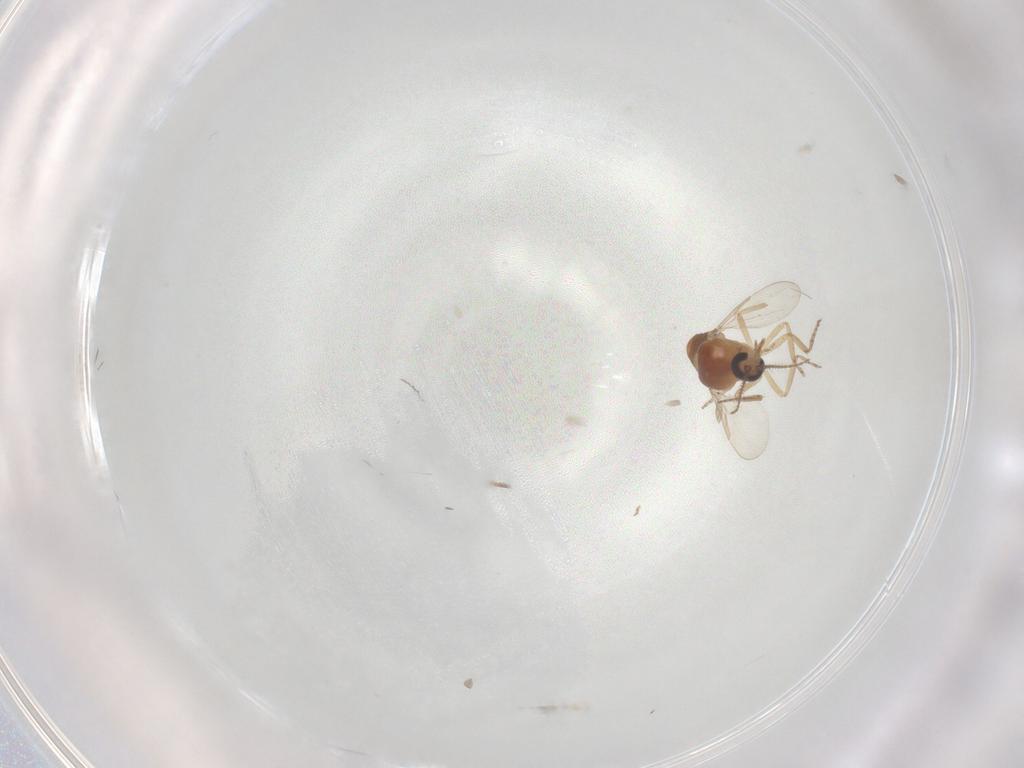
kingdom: Animalia
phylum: Arthropoda
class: Insecta
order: Diptera
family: Ceratopogonidae
